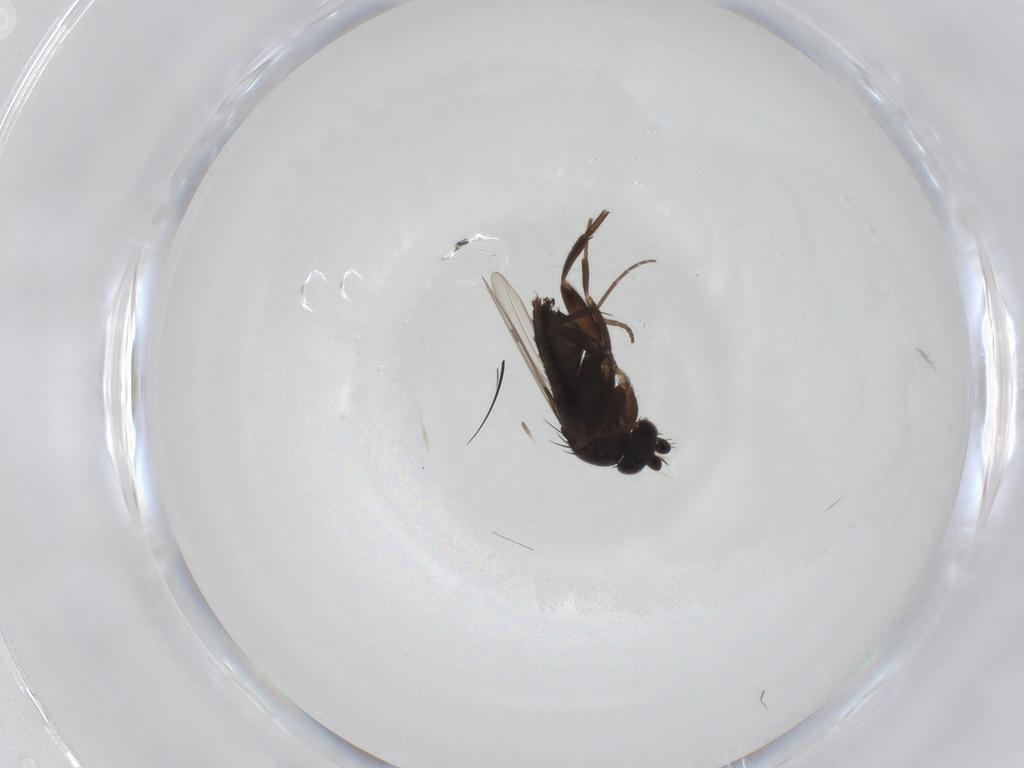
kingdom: Animalia
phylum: Arthropoda
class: Insecta
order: Diptera
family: Phoridae
